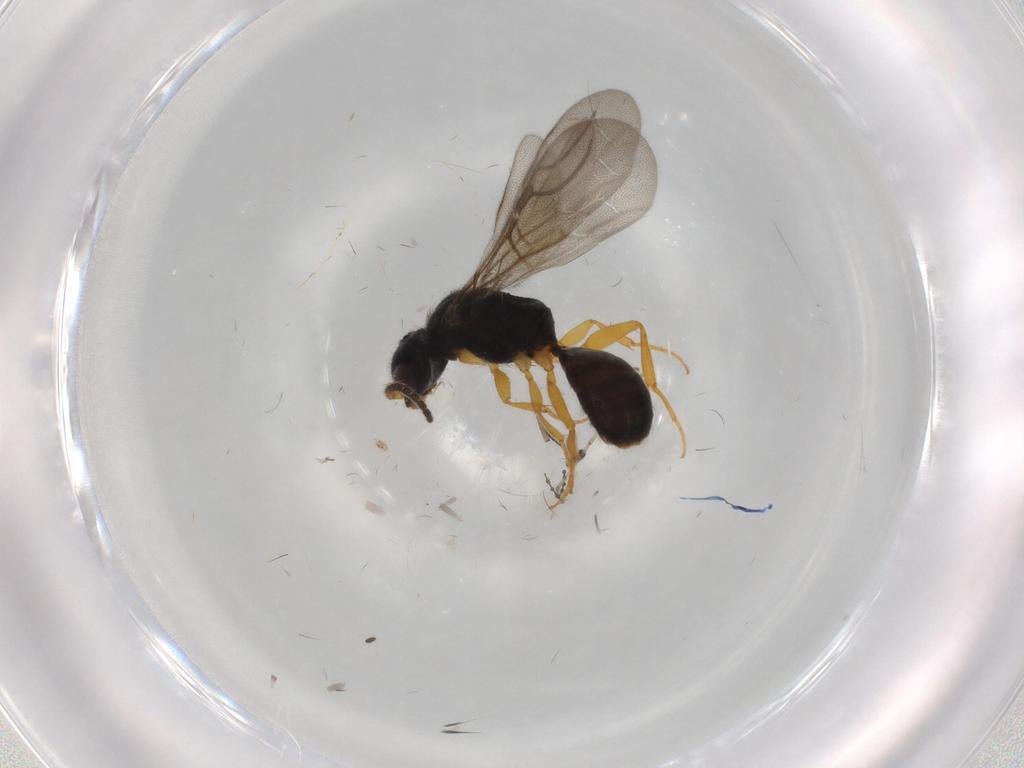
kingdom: Animalia
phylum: Arthropoda
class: Insecta
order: Hymenoptera
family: Bethylidae
